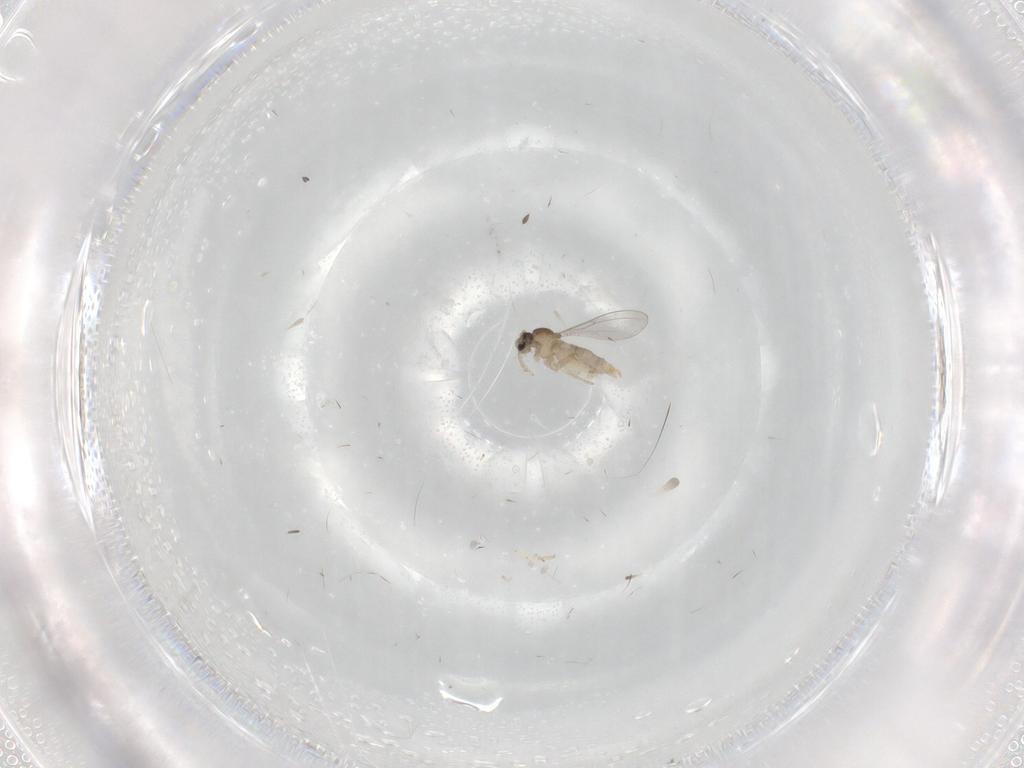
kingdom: Animalia
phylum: Arthropoda
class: Insecta
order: Diptera
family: Cecidomyiidae
